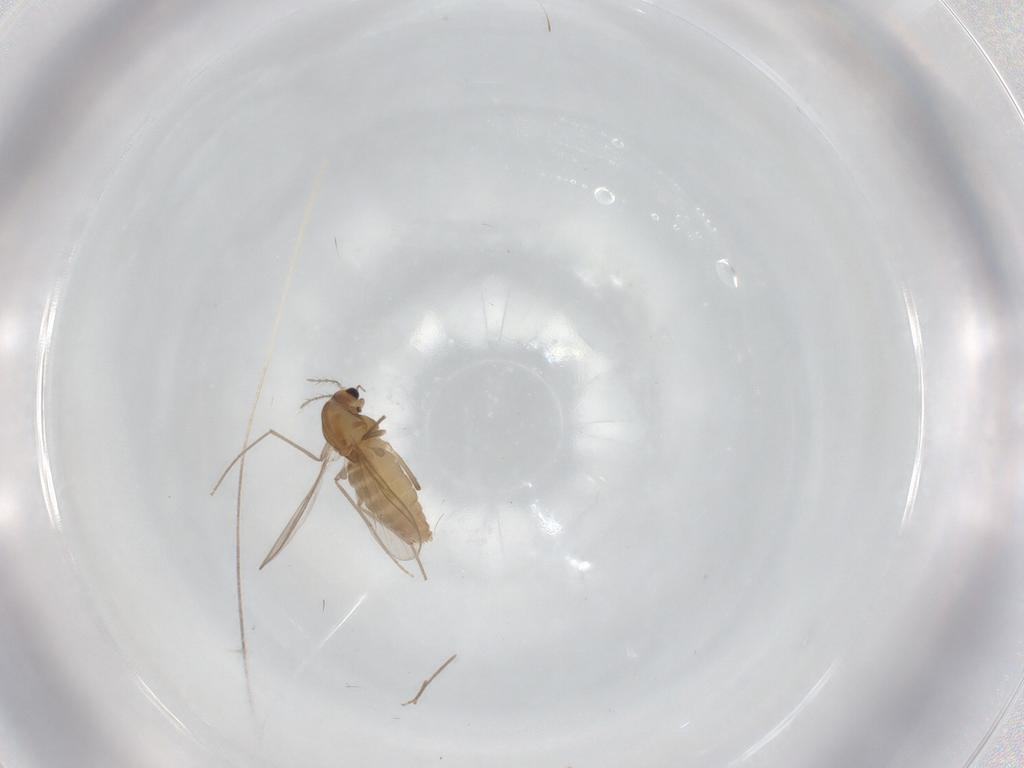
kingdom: Animalia
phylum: Arthropoda
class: Insecta
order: Diptera
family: Chironomidae
